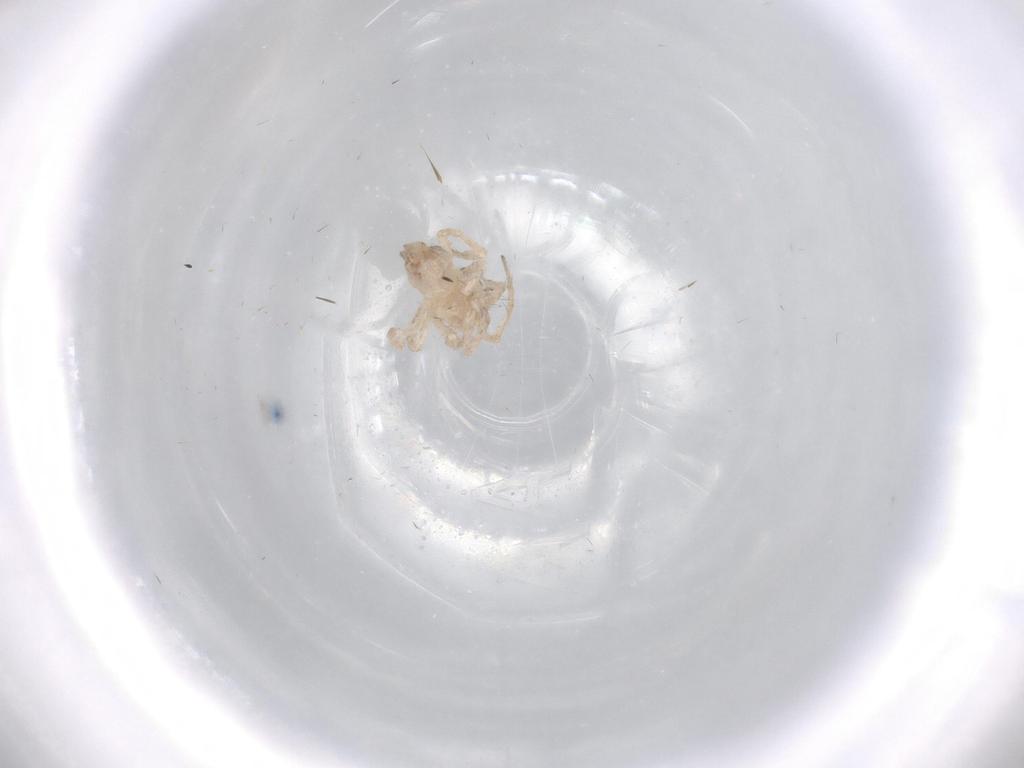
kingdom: Animalia
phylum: Arthropoda
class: Arachnida
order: Araneae
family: Nesticidae
